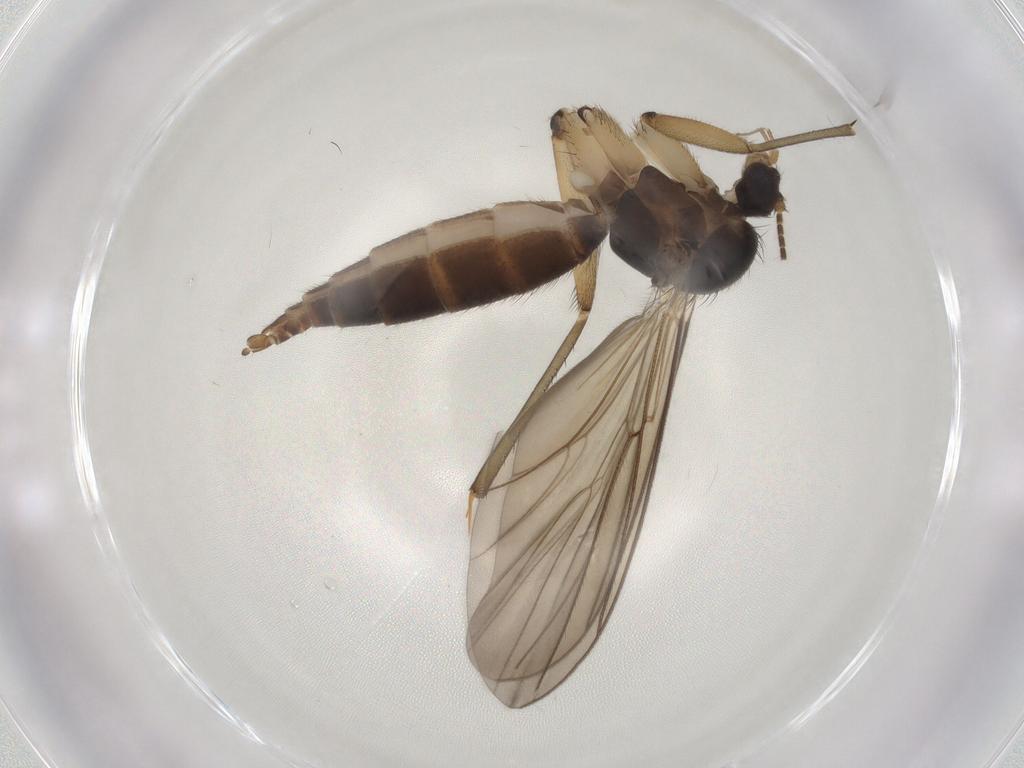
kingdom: Animalia
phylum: Arthropoda
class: Insecta
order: Diptera
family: Mycetophilidae
